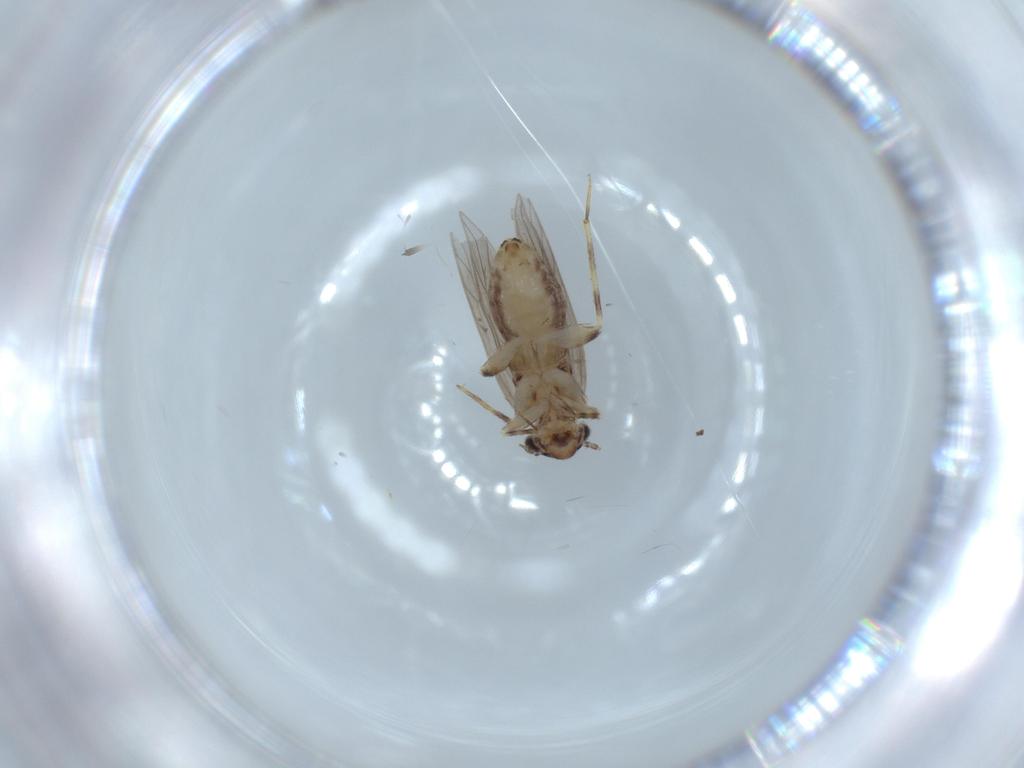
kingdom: Animalia
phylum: Arthropoda
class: Insecta
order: Psocodea
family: Lepidopsocidae
